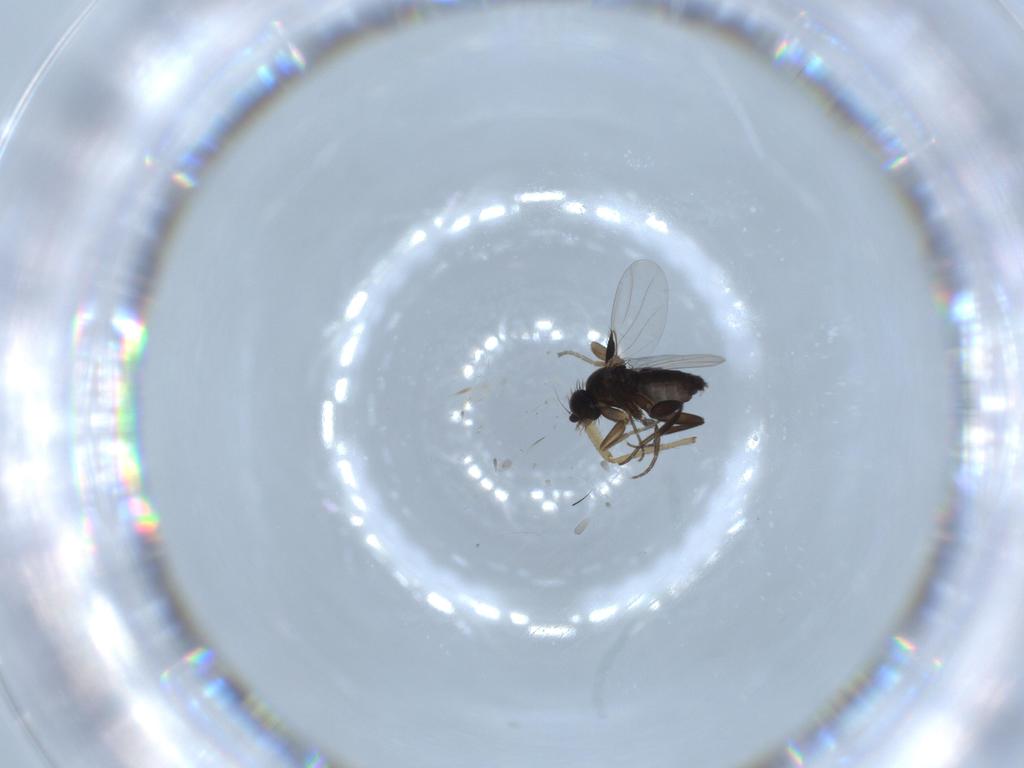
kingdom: Animalia
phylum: Arthropoda
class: Insecta
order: Diptera
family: Phoridae
